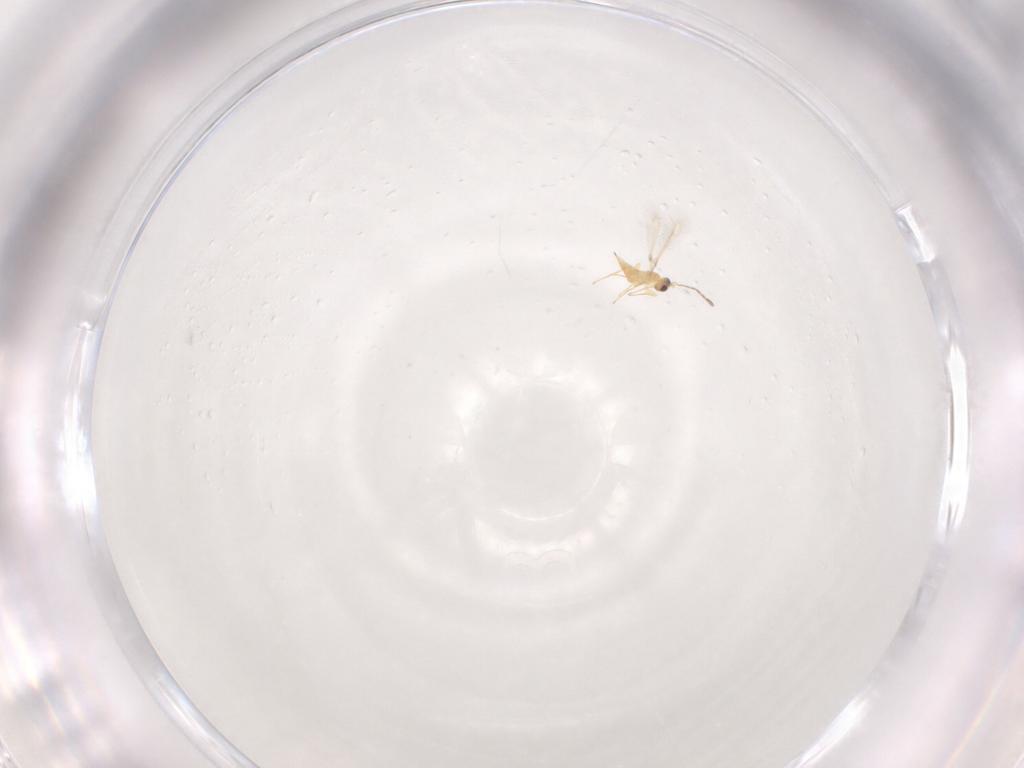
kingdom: Animalia
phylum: Arthropoda
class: Insecta
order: Hymenoptera
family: Mymaridae
